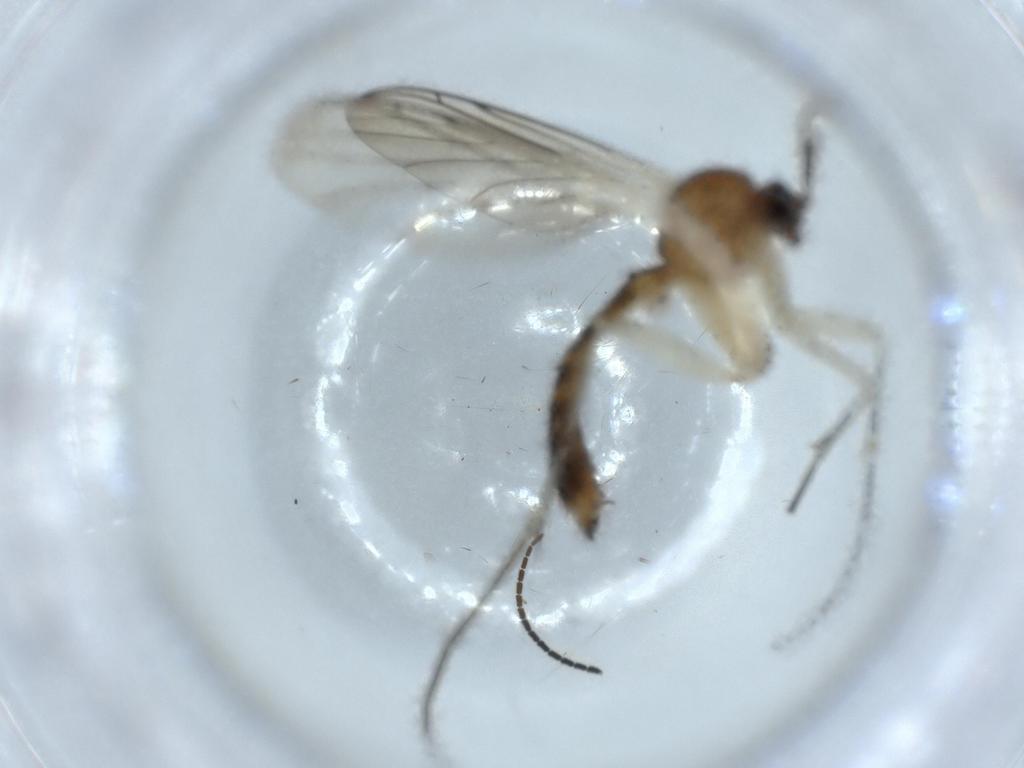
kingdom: Animalia
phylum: Arthropoda
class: Insecta
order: Diptera
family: Keroplatidae
